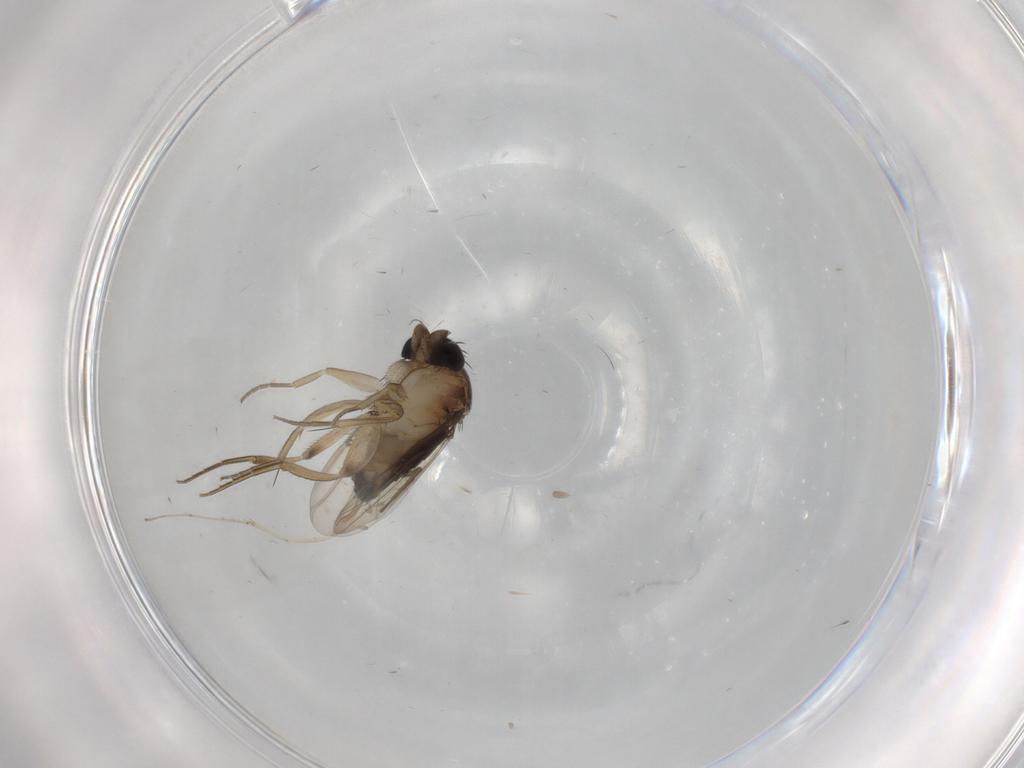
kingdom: Animalia
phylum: Arthropoda
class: Insecta
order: Diptera
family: Phoridae
